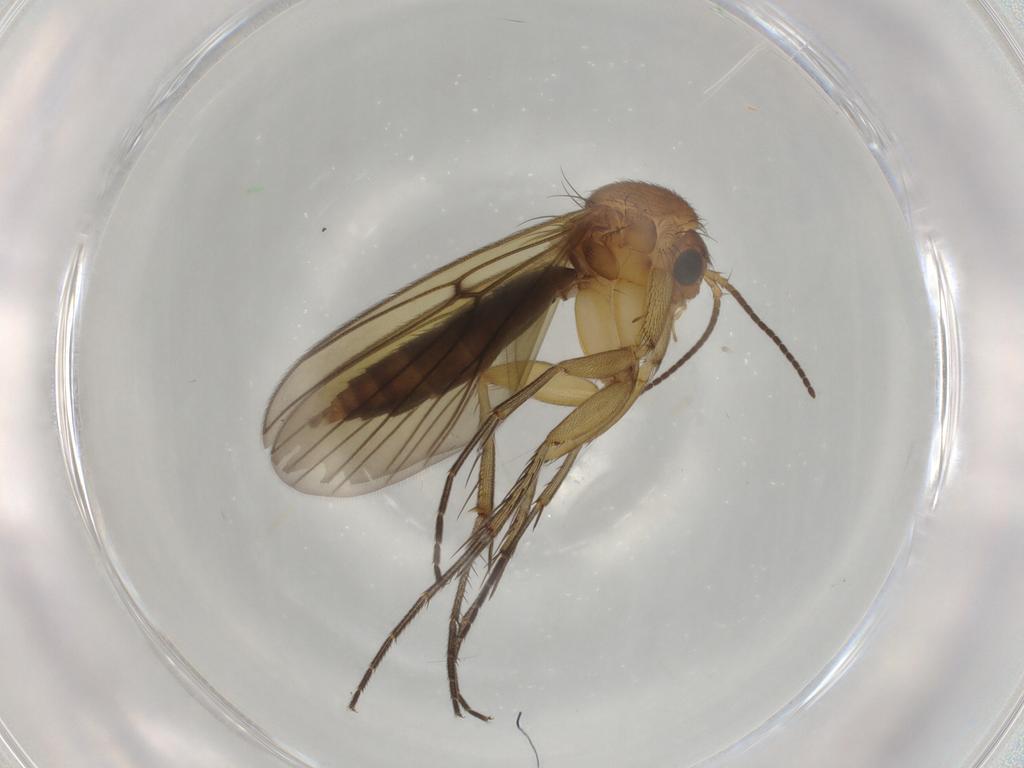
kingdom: Animalia
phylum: Arthropoda
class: Insecta
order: Diptera
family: Mycetophilidae
